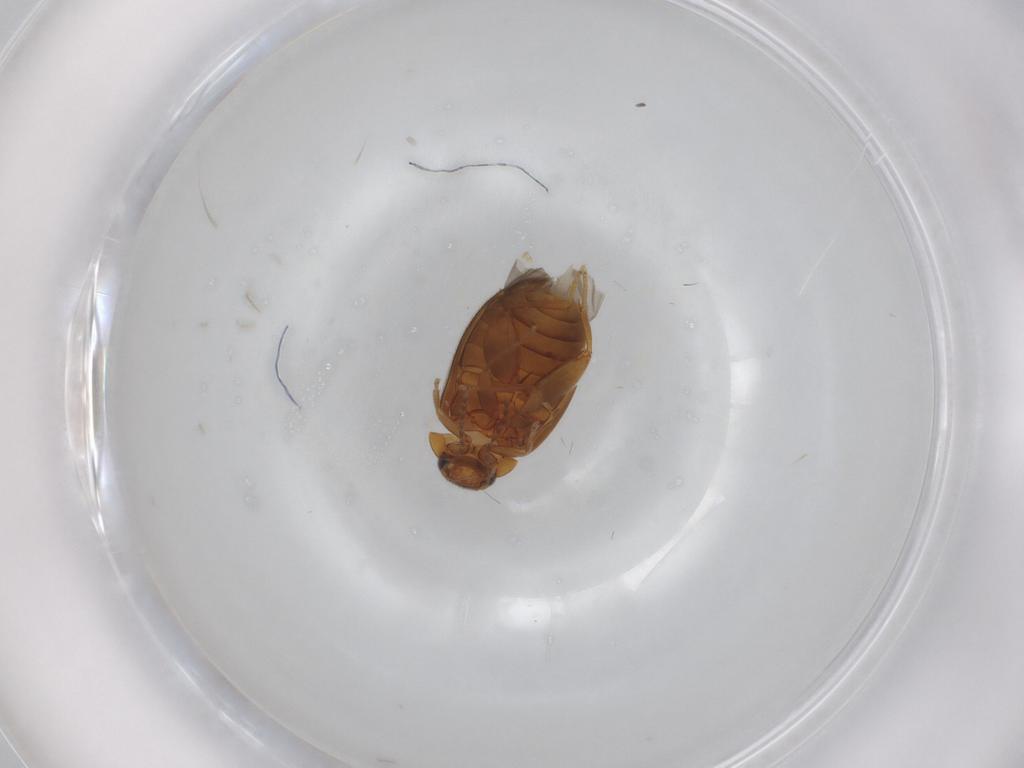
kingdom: Animalia
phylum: Arthropoda
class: Insecta
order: Coleoptera
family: Scirtidae
